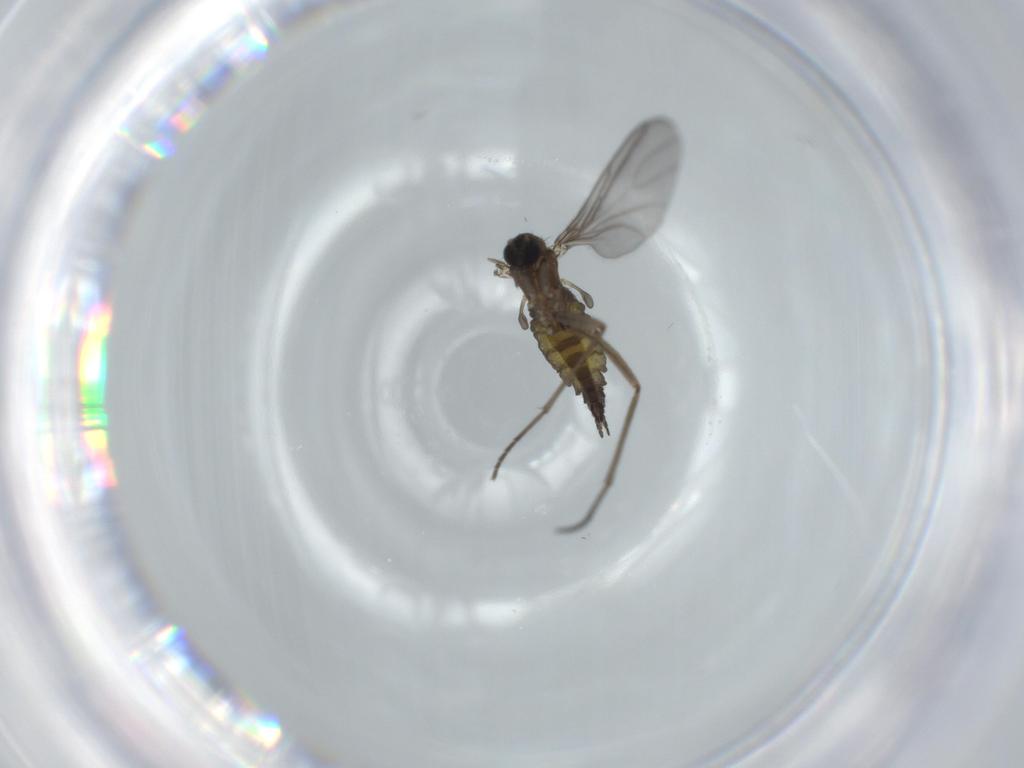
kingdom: Animalia
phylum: Arthropoda
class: Insecta
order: Diptera
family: Sciaridae
